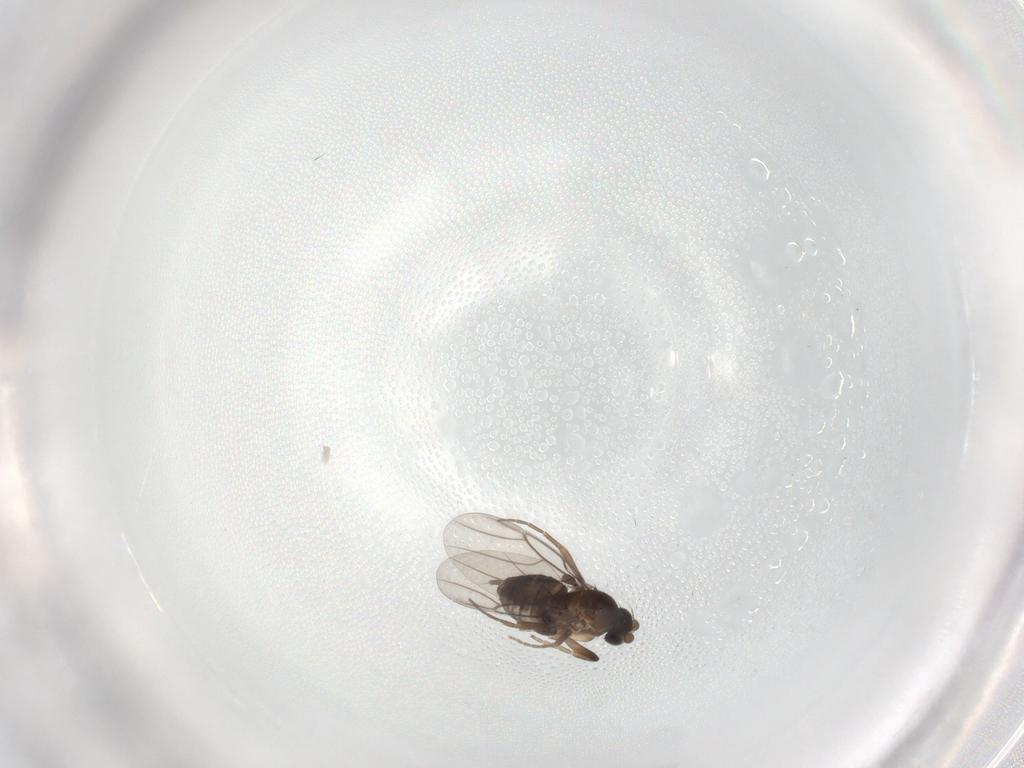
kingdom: Animalia
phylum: Arthropoda
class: Insecta
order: Diptera
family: Phoridae
